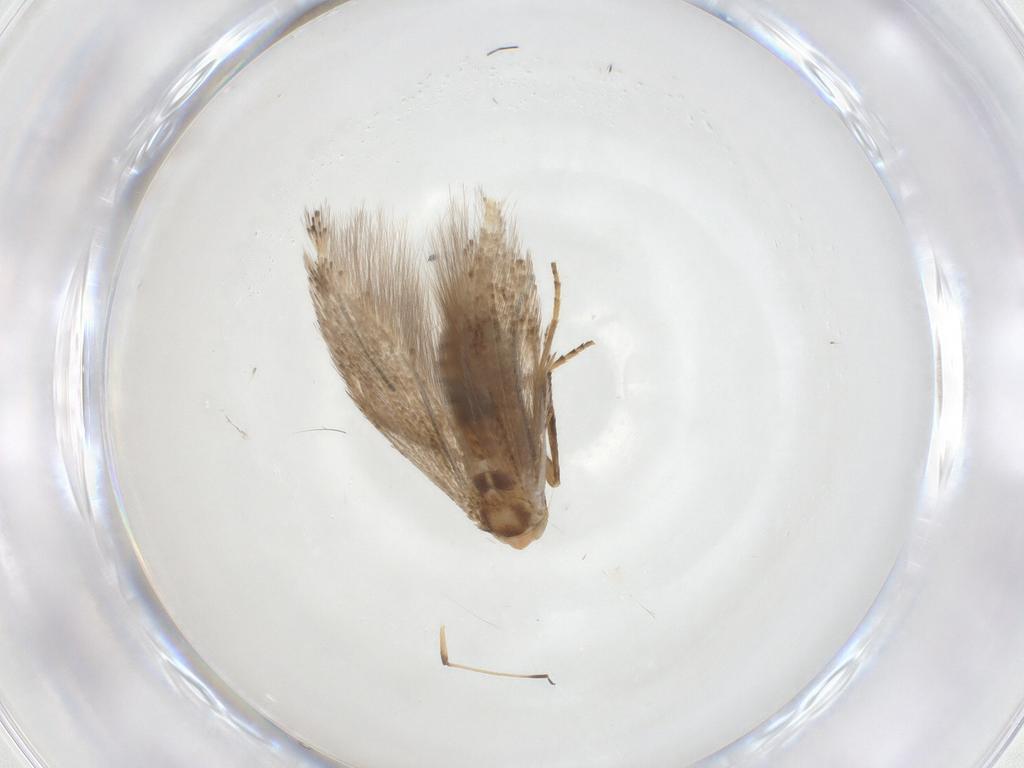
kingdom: Animalia
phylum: Arthropoda
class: Insecta
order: Lepidoptera
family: Bucculatricidae
